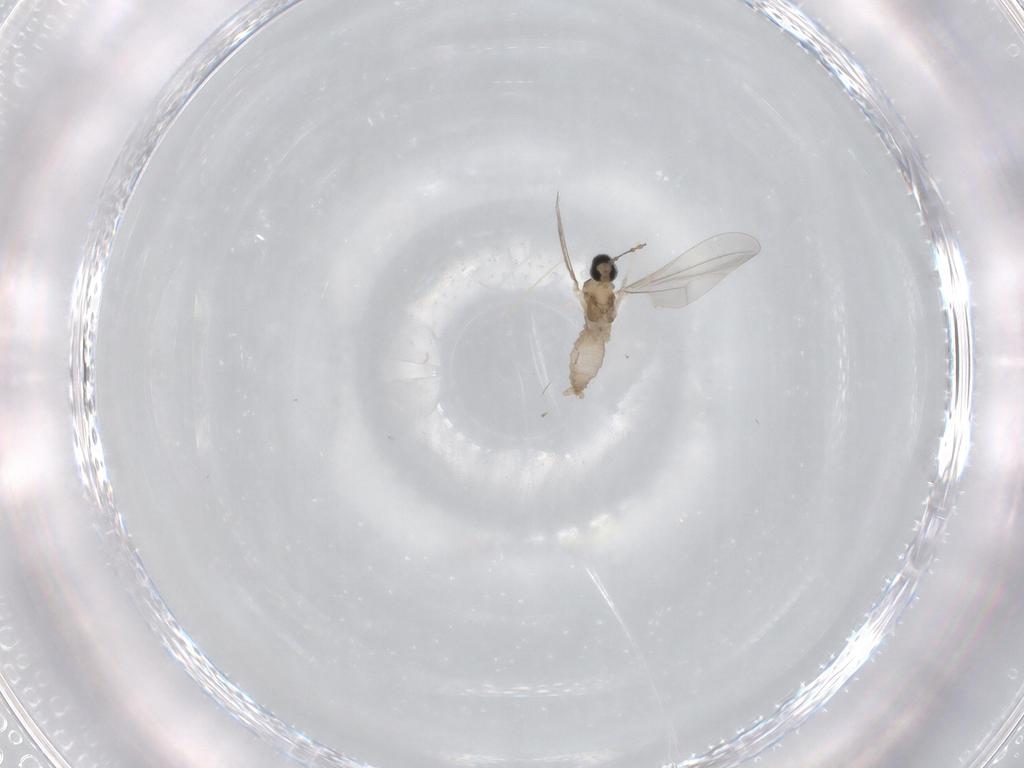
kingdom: Animalia
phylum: Arthropoda
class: Insecta
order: Diptera
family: Cecidomyiidae
